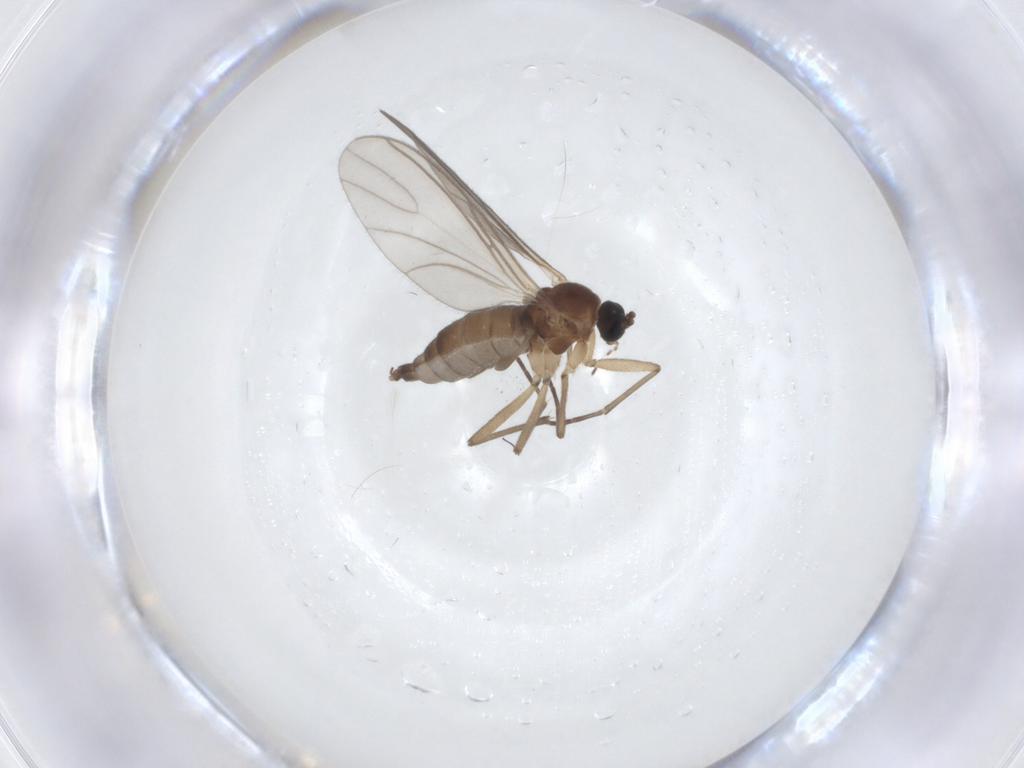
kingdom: Animalia
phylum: Arthropoda
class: Insecta
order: Diptera
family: Sciaridae
